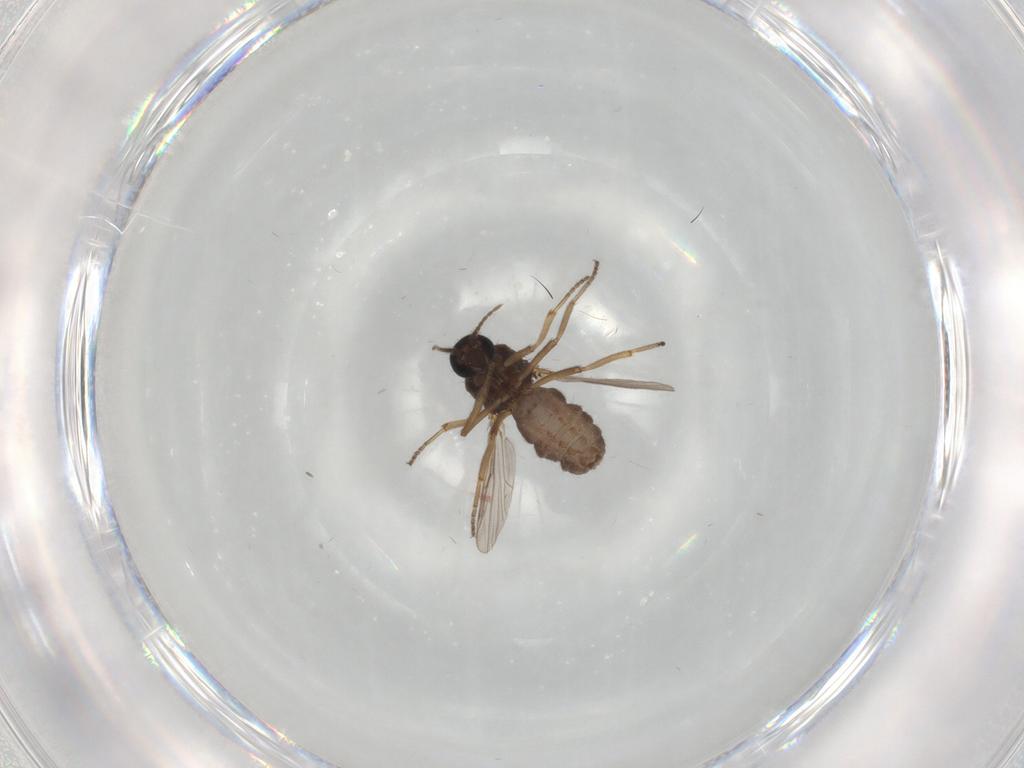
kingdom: Animalia
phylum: Arthropoda
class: Insecta
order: Diptera
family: Ceratopogonidae
